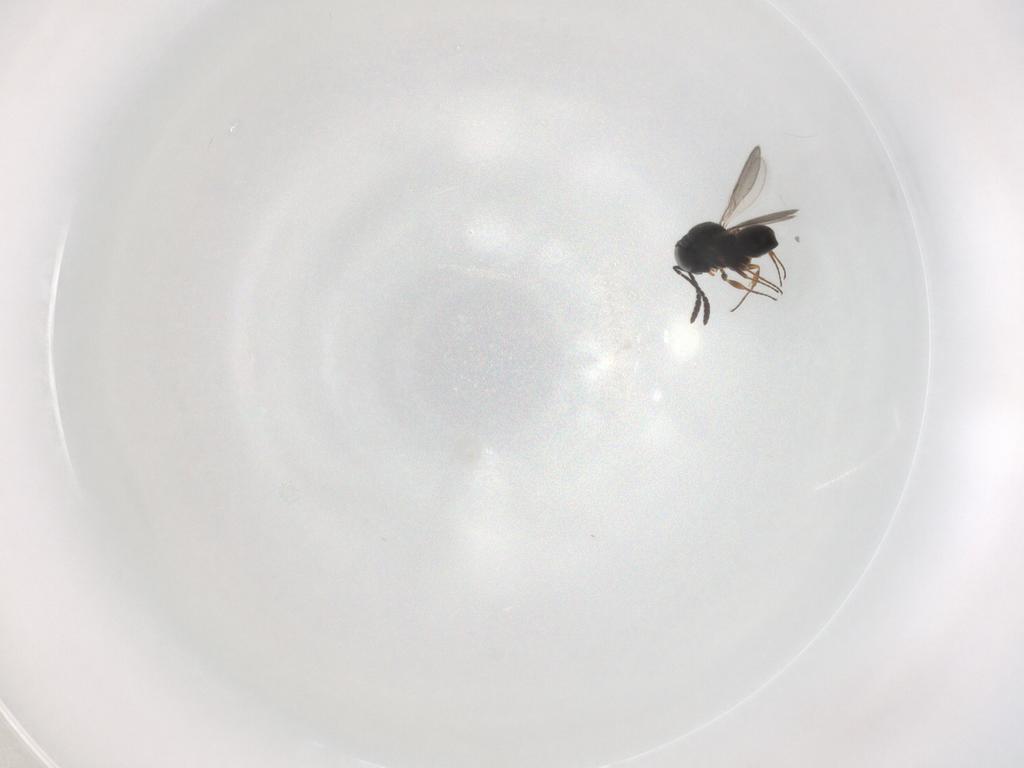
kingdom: Animalia
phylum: Arthropoda
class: Insecta
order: Hymenoptera
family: Scelionidae
